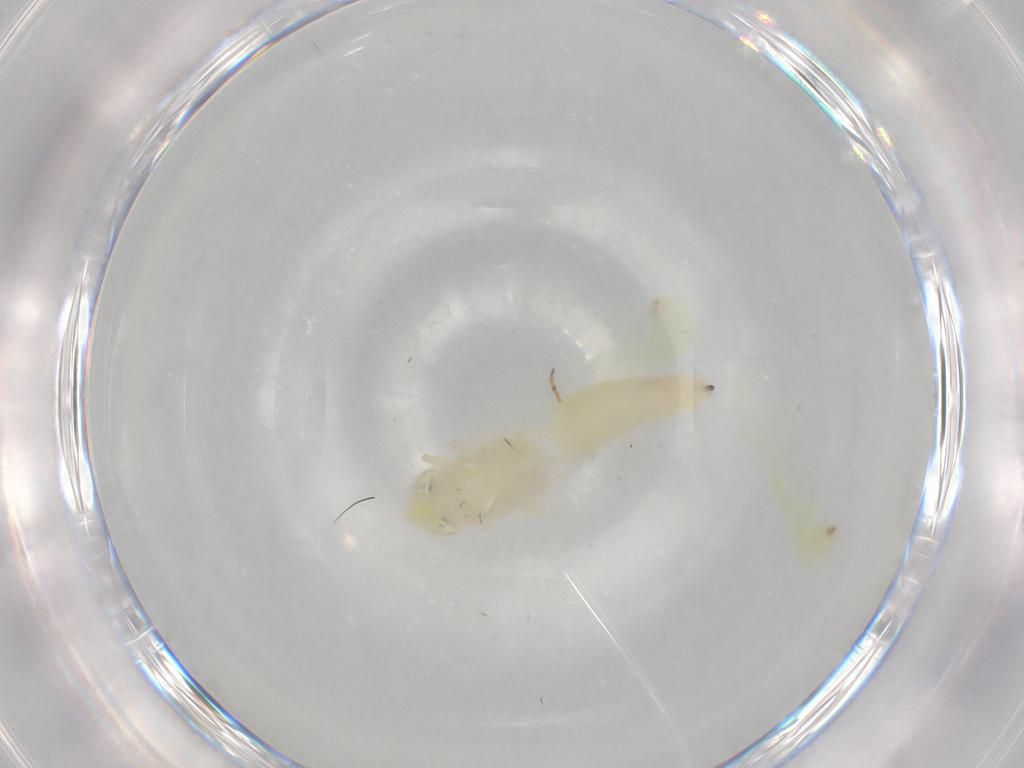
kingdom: Animalia
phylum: Arthropoda
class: Insecta
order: Hemiptera
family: Cicadellidae
